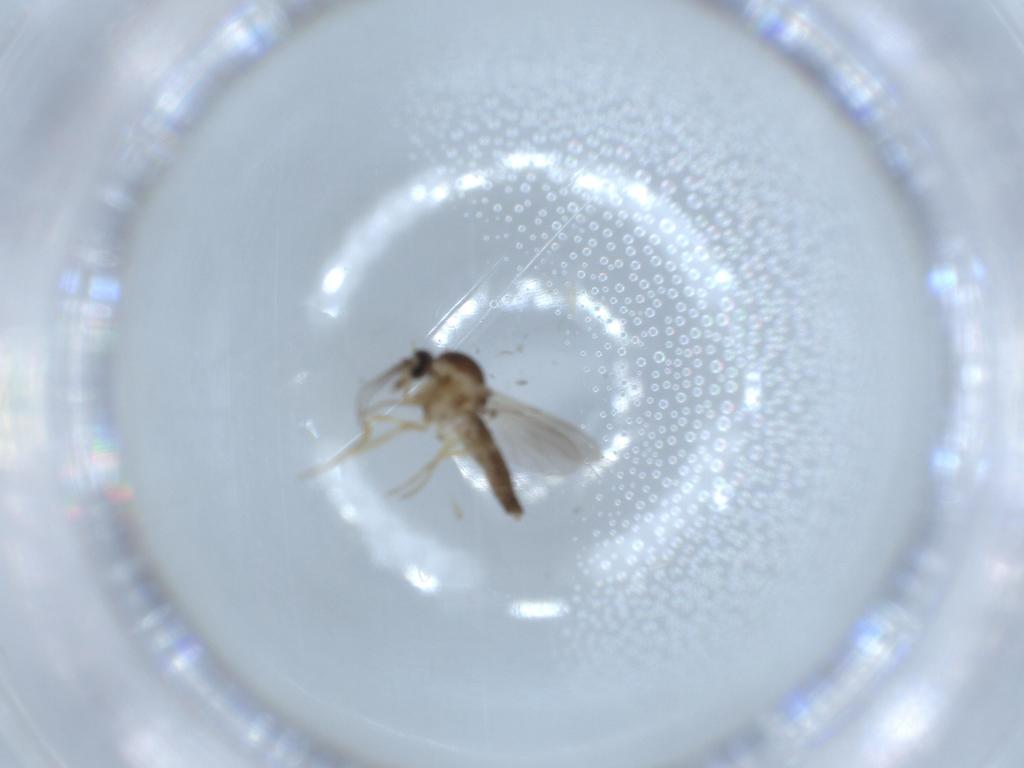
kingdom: Animalia
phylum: Arthropoda
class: Insecta
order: Diptera
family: Ceratopogonidae
